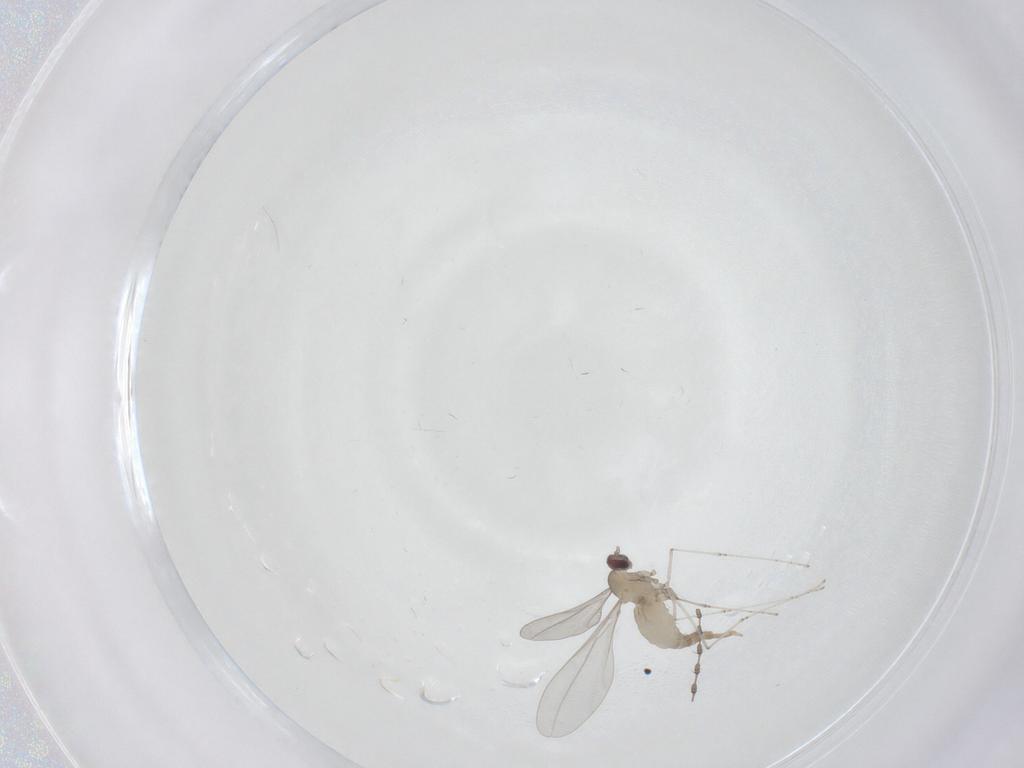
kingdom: Animalia
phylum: Arthropoda
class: Insecta
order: Diptera
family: Cecidomyiidae
